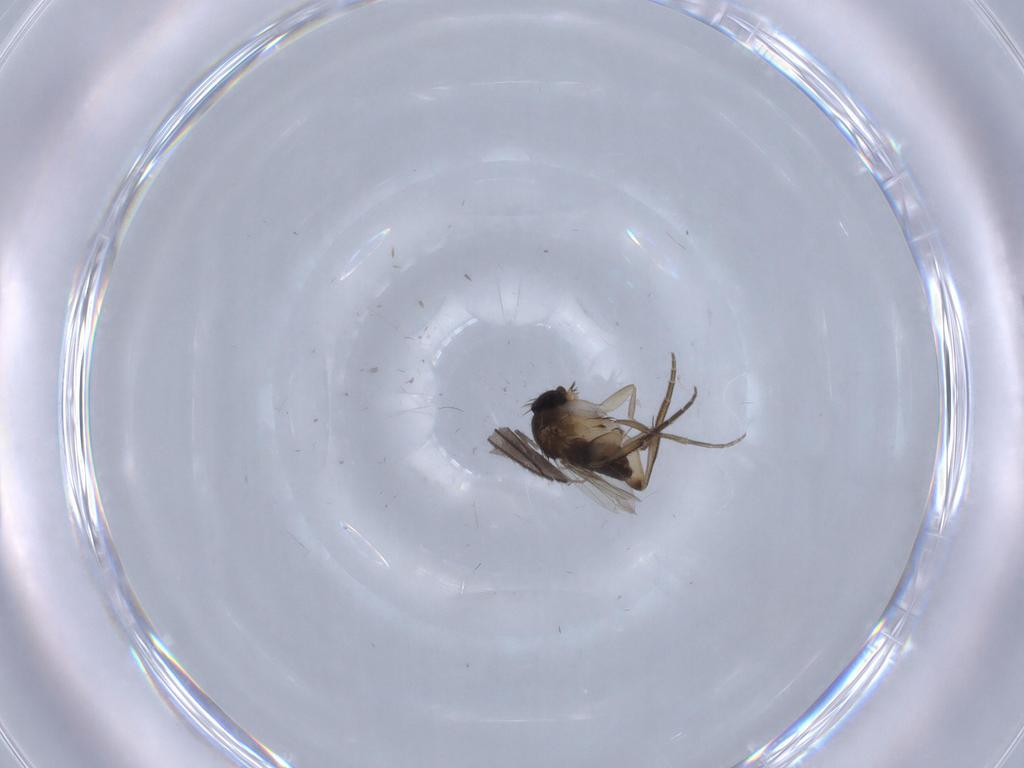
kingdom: Animalia
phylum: Arthropoda
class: Insecta
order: Diptera
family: Phoridae
